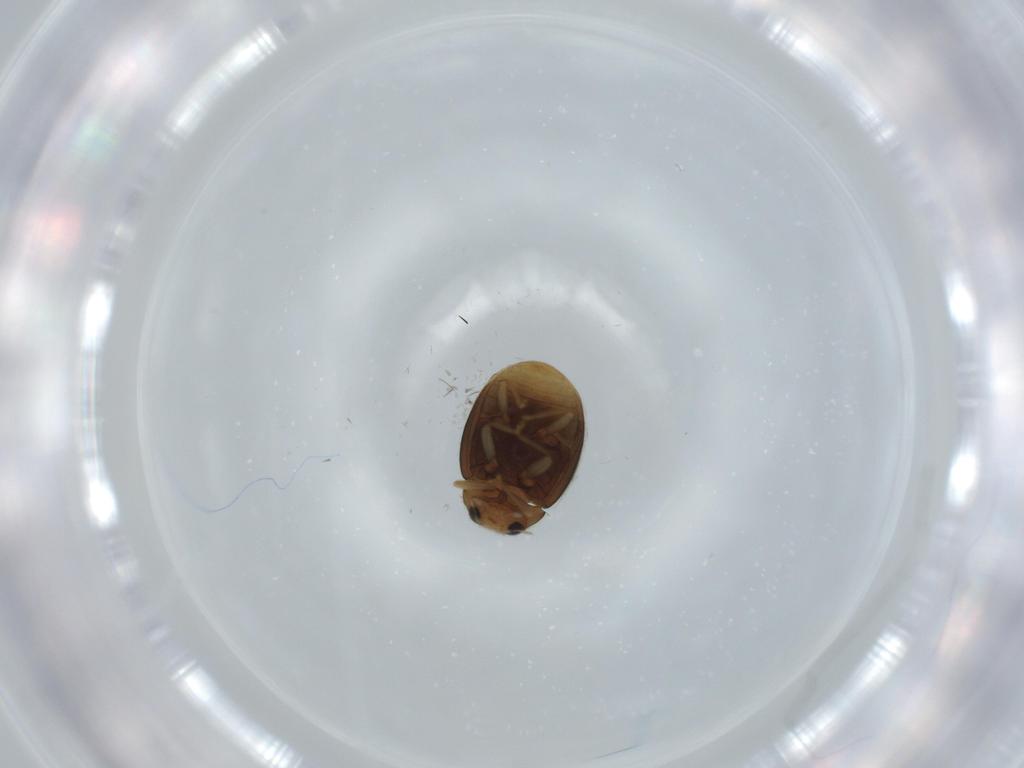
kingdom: Animalia
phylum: Arthropoda
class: Insecta
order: Coleoptera
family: Coccinellidae
